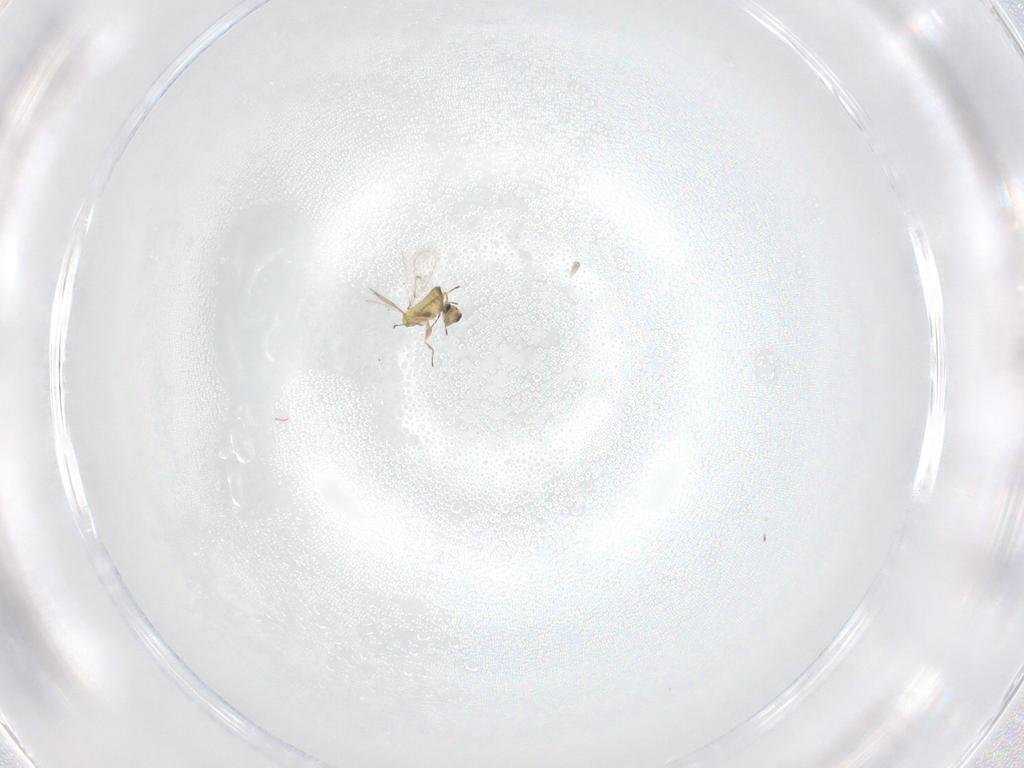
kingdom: Animalia
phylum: Arthropoda
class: Insecta
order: Hymenoptera
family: Trichogrammatidae
